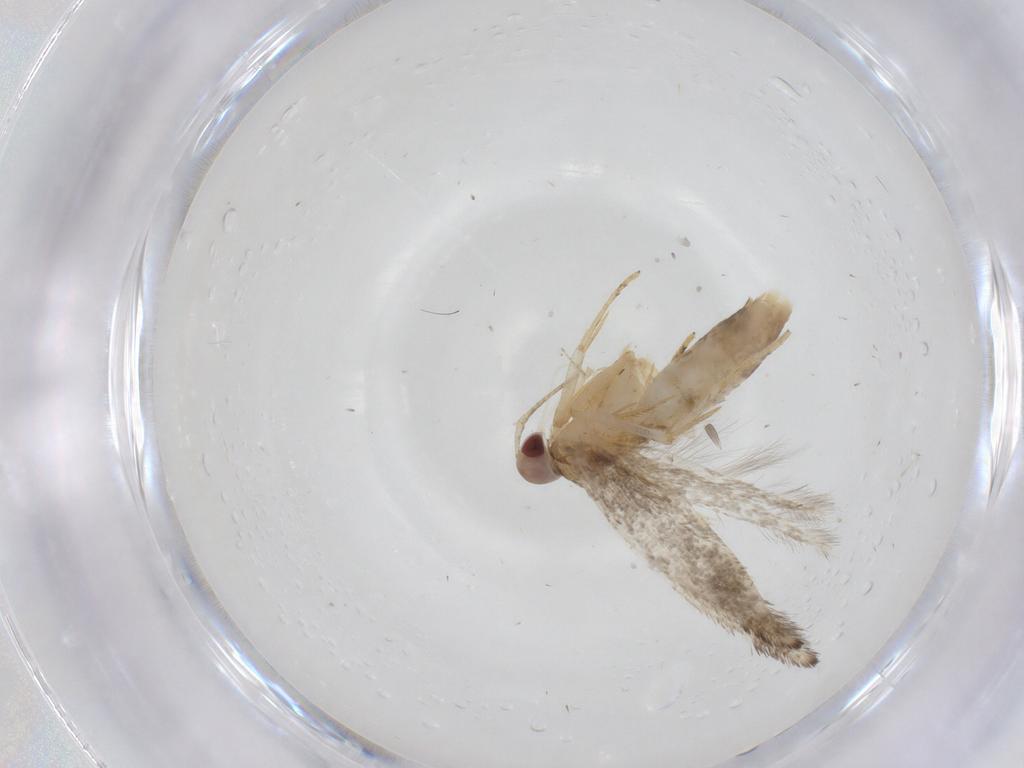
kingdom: Animalia
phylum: Arthropoda
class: Insecta
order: Lepidoptera
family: Cosmopterigidae
